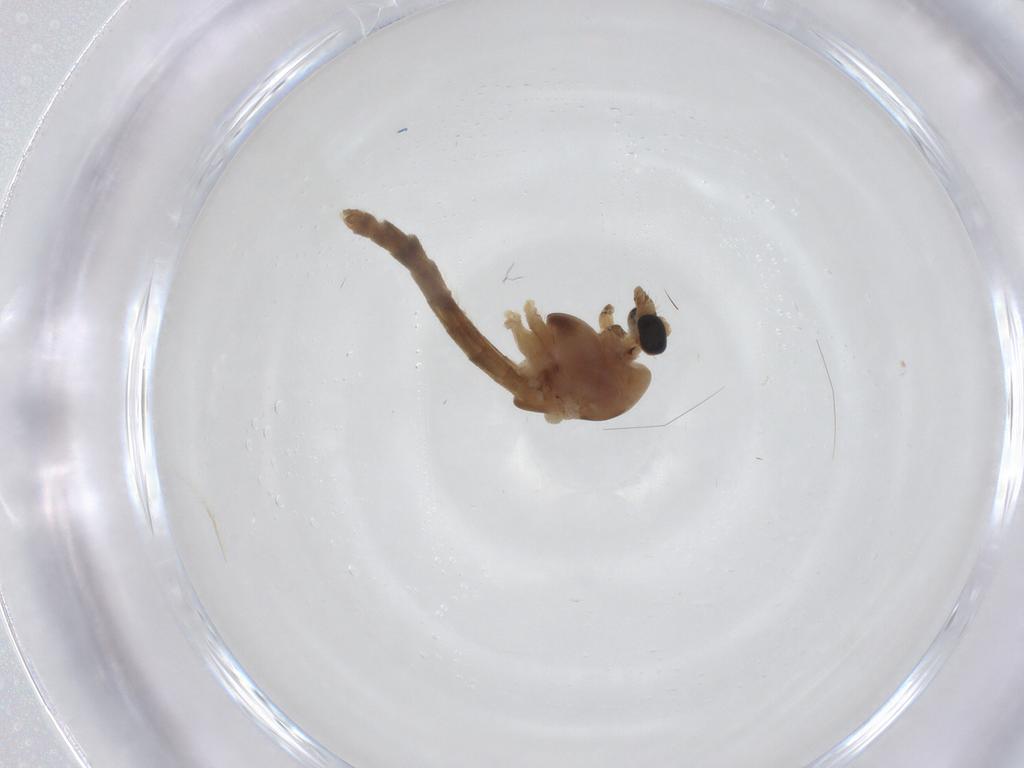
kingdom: Animalia
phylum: Arthropoda
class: Insecta
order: Diptera
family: Chironomidae
